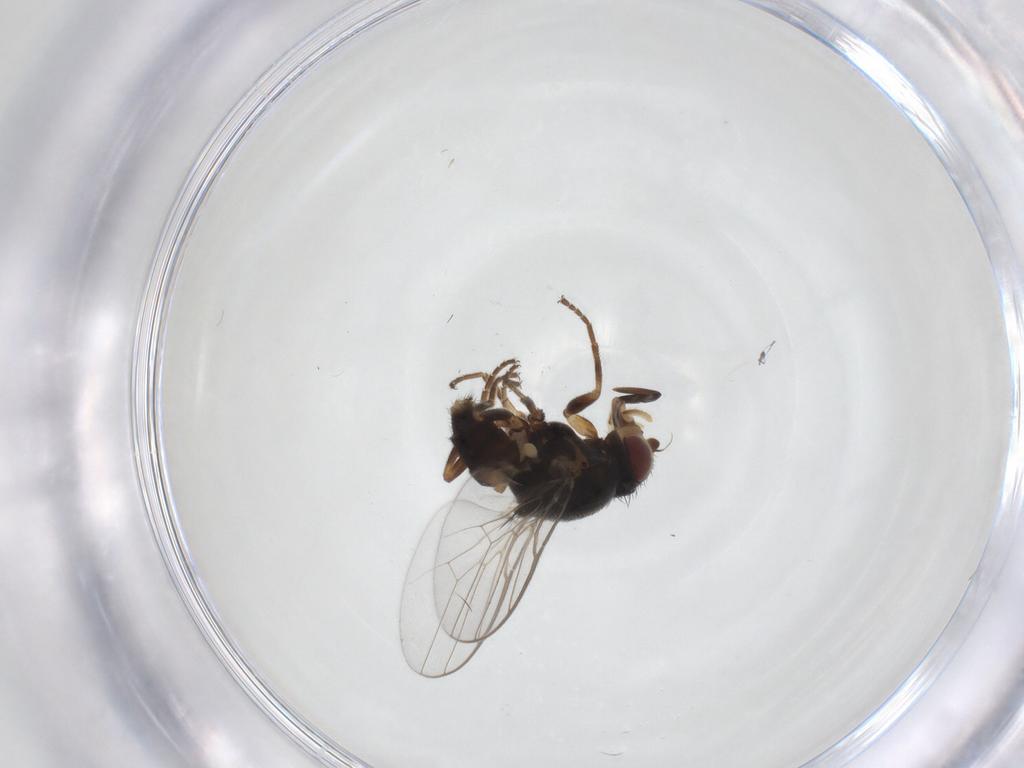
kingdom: Animalia
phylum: Arthropoda
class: Insecta
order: Diptera
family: Chloropidae
